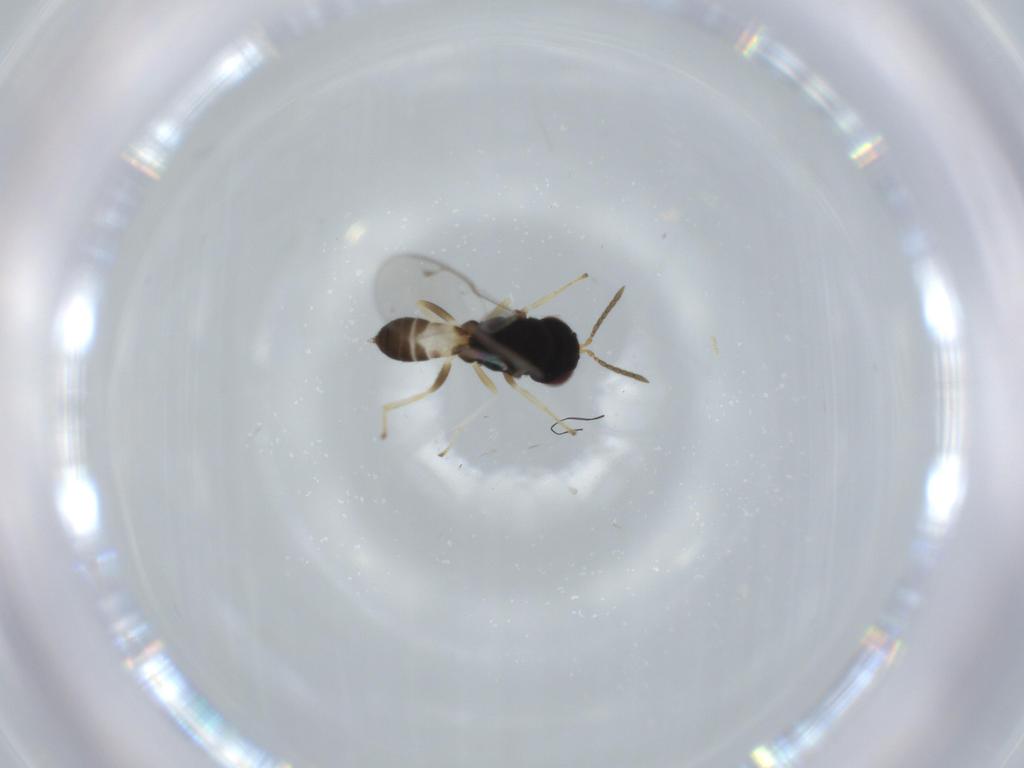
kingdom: Animalia
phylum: Arthropoda
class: Insecta
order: Hymenoptera
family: Pteromalidae
